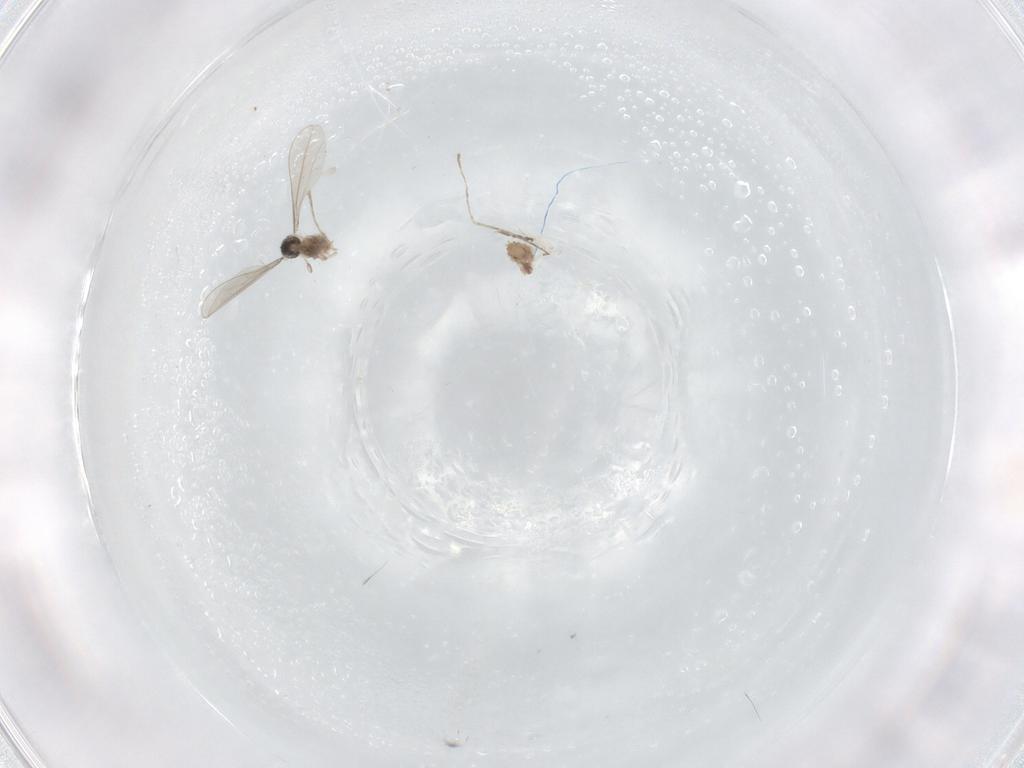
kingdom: Animalia
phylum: Arthropoda
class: Insecta
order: Diptera
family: Cecidomyiidae
